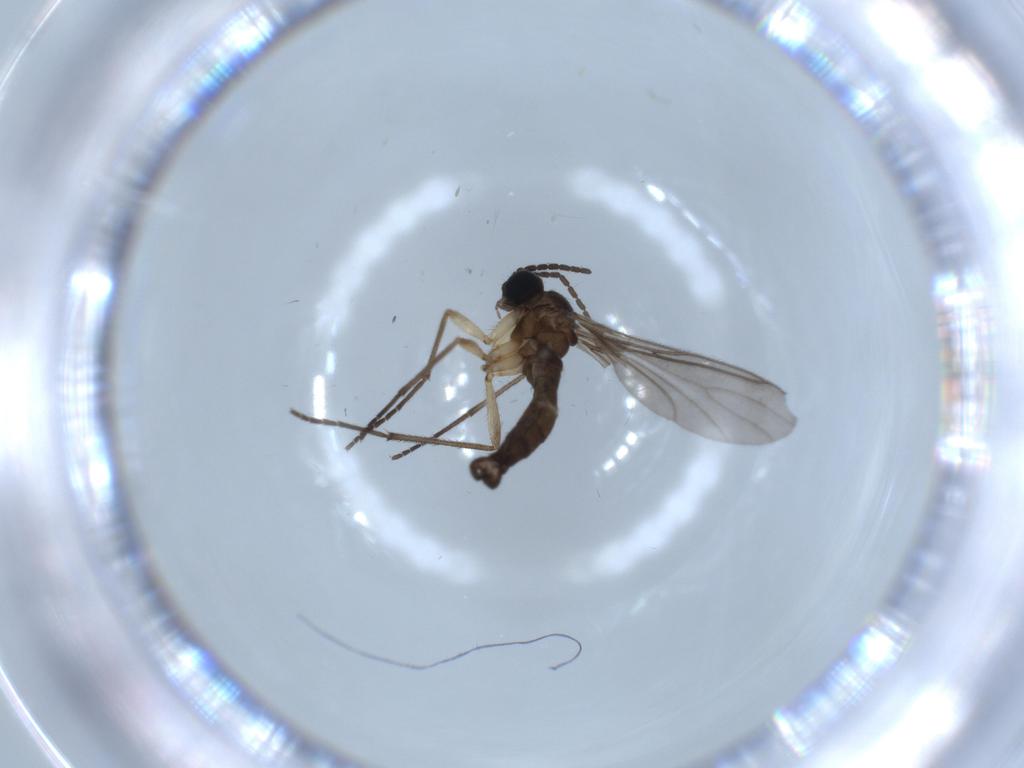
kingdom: Animalia
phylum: Arthropoda
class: Insecta
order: Diptera
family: Sciaridae
